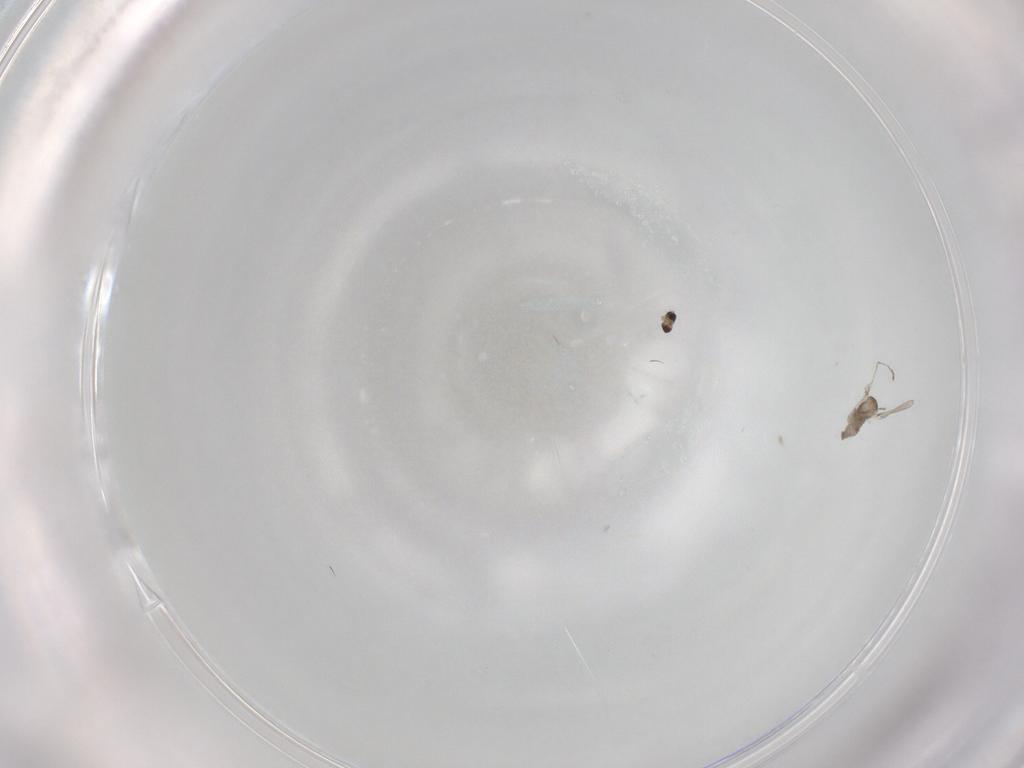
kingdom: Animalia
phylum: Arthropoda
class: Insecta
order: Diptera
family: Cecidomyiidae
